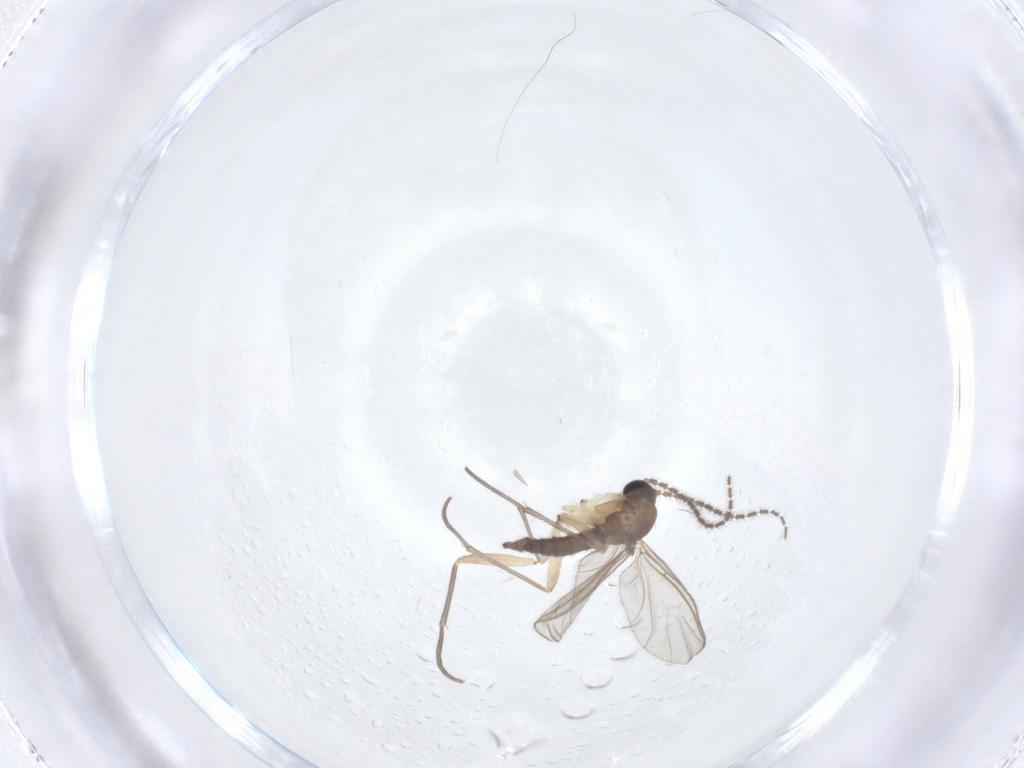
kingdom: Animalia
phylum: Arthropoda
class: Insecta
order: Diptera
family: Sciaridae
